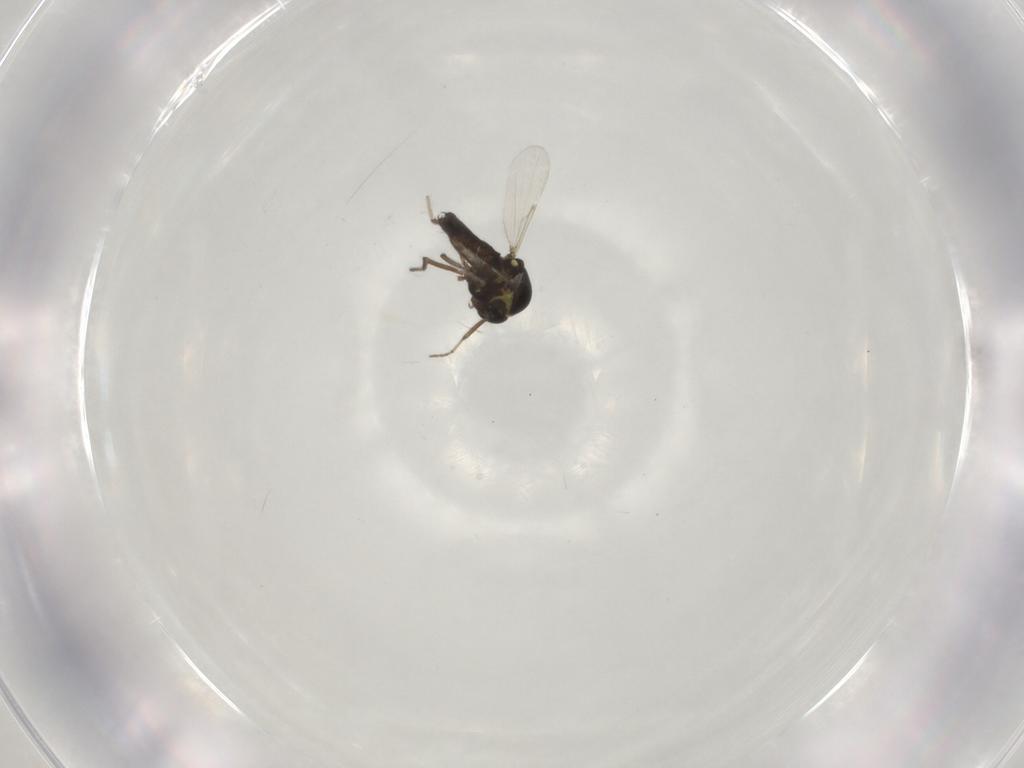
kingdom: Animalia
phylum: Arthropoda
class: Insecta
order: Diptera
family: Ceratopogonidae
